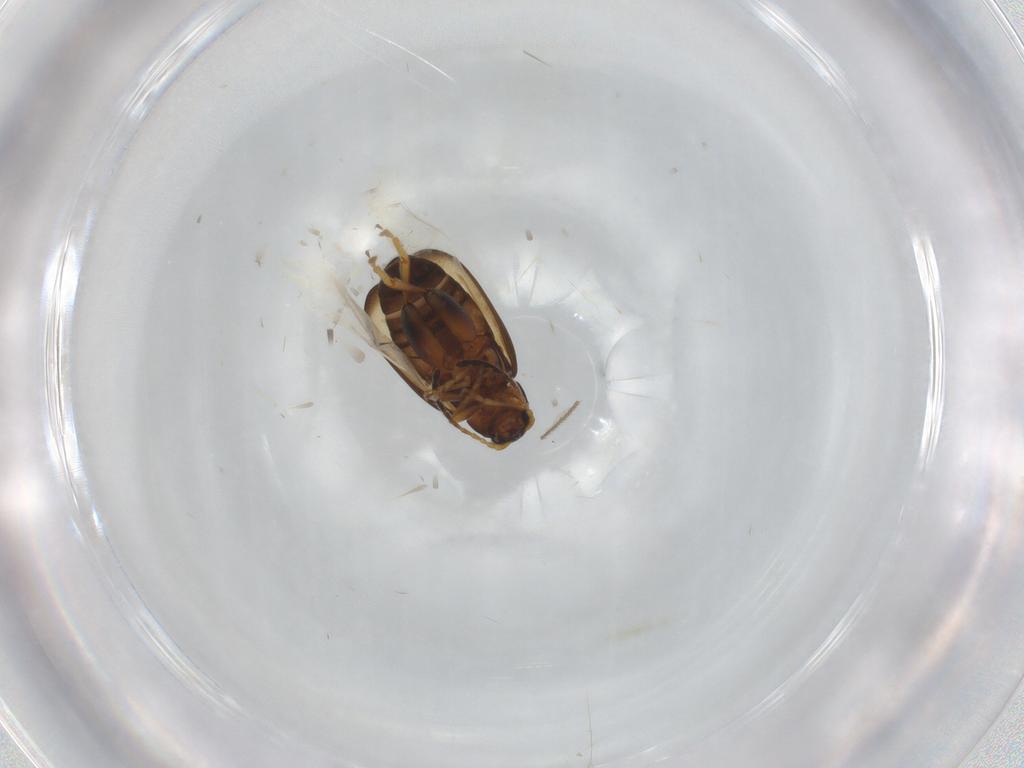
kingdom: Animalia
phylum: Arthropoda
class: Insecta
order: Coleoptera
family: Chrysomelidae
